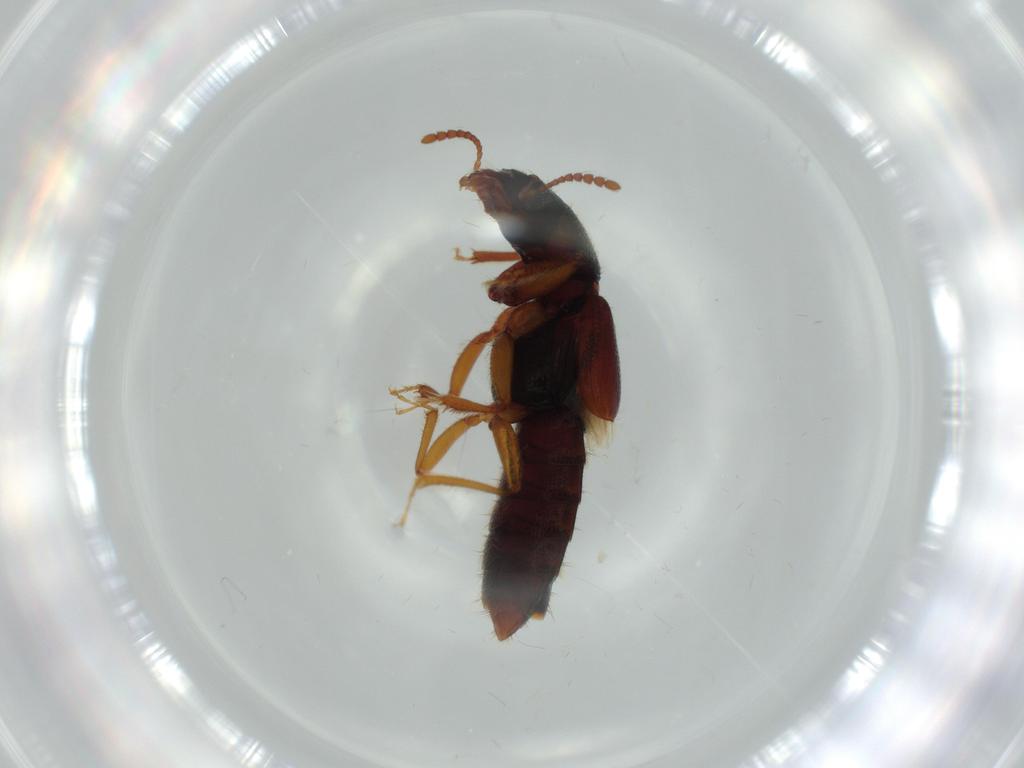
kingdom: Animalia
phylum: Arthropoda
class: Insecta
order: Coleoptera
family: Staphylinidae
